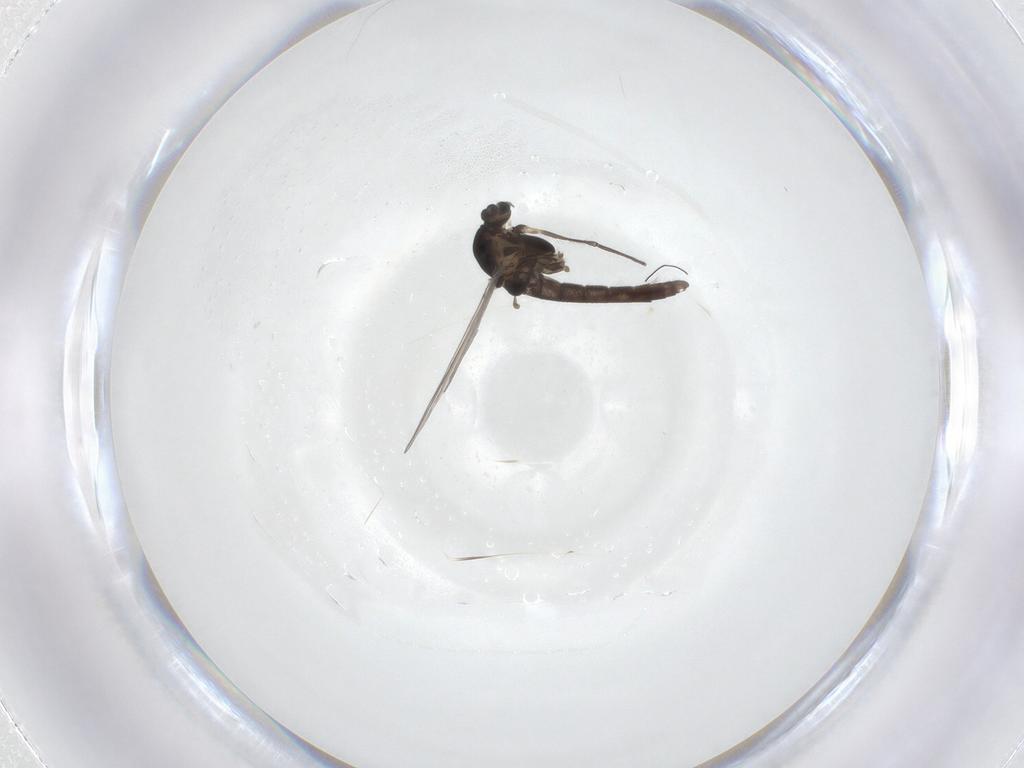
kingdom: Animalia
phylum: Arthropoda
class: Insecta
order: Diptera
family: Chironomidae
